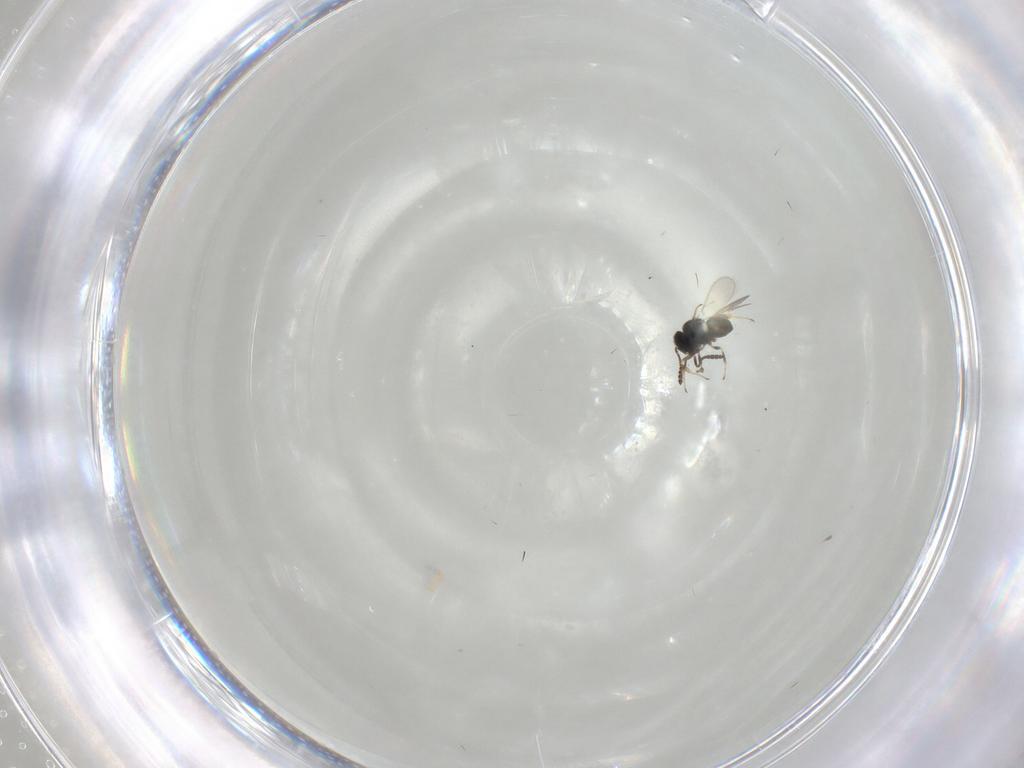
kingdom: Animalia
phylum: Arthropoda
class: Insecta
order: Hymenoptera
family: Scelionidae
